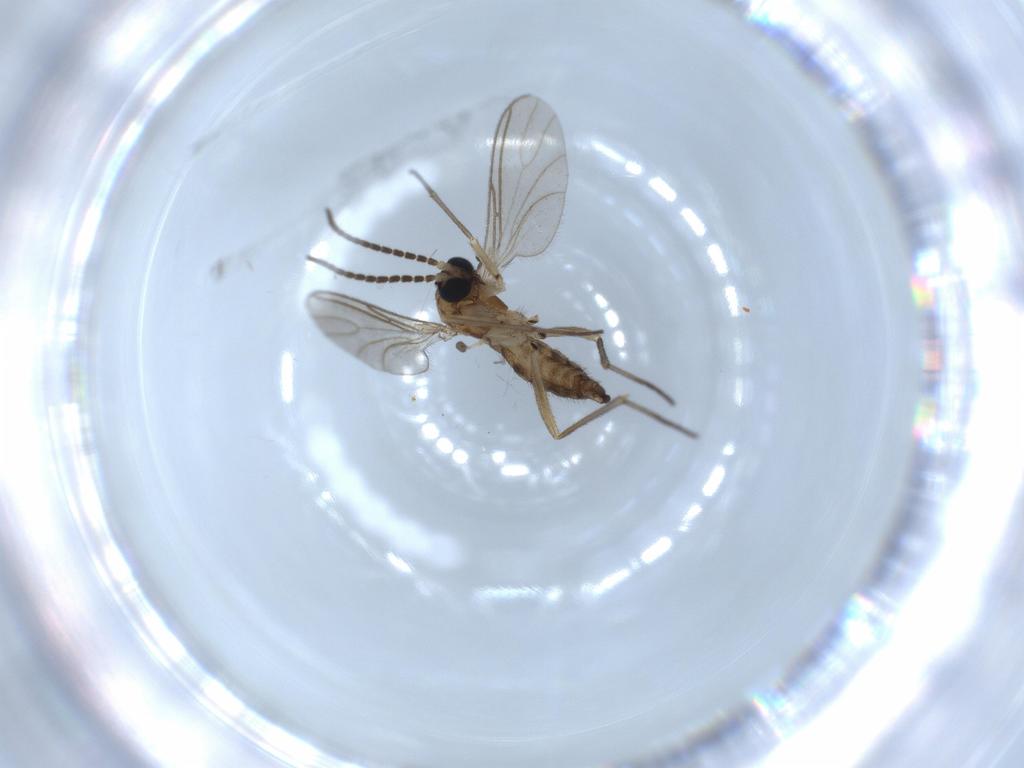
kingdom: Animalia
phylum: Arthropoda
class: Insecta
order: Diptera
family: Sciaridae
